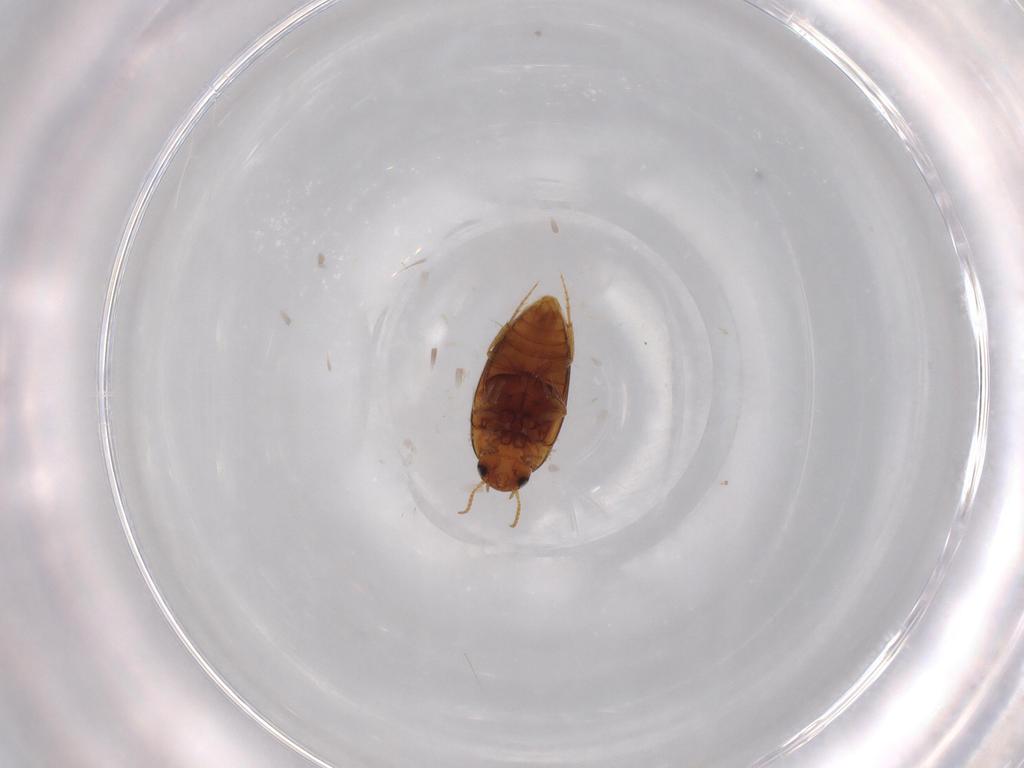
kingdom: Animalia
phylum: Arthropoda
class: Insecta
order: Coleoptera
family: Noteridae
